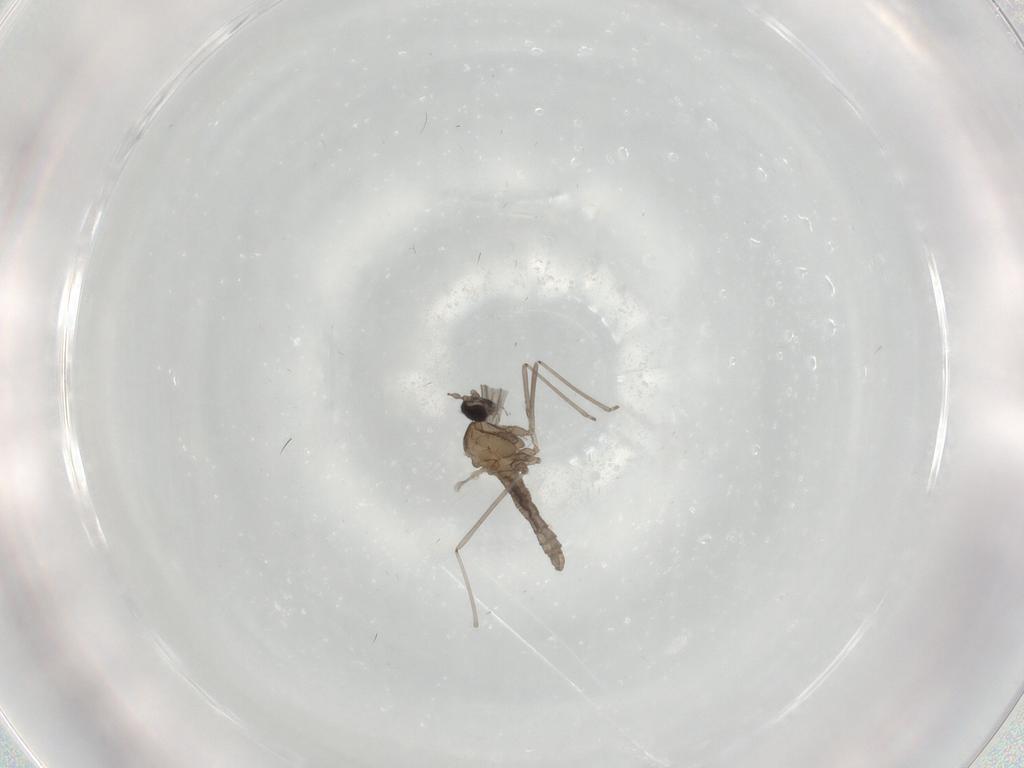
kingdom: Animalia
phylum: Arthropoda
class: Insecta
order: Diptera
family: Cecidomyiidae
